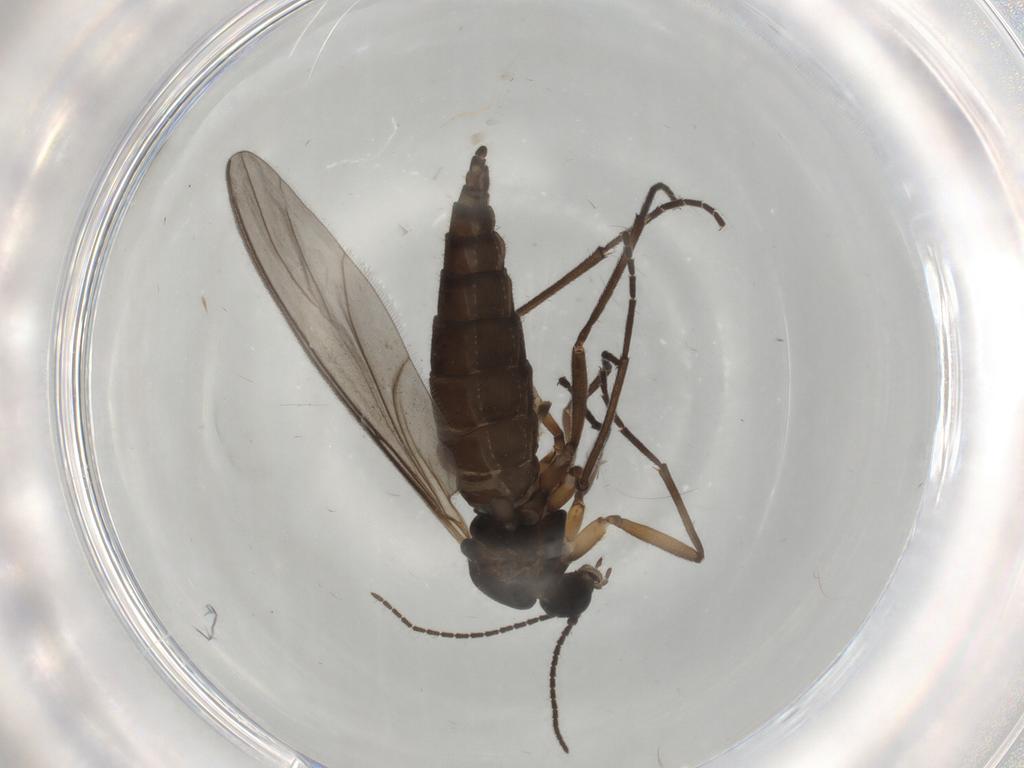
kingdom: Animalia
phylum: Arthropoda
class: Insecta
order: Diptera
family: Sciaridae
